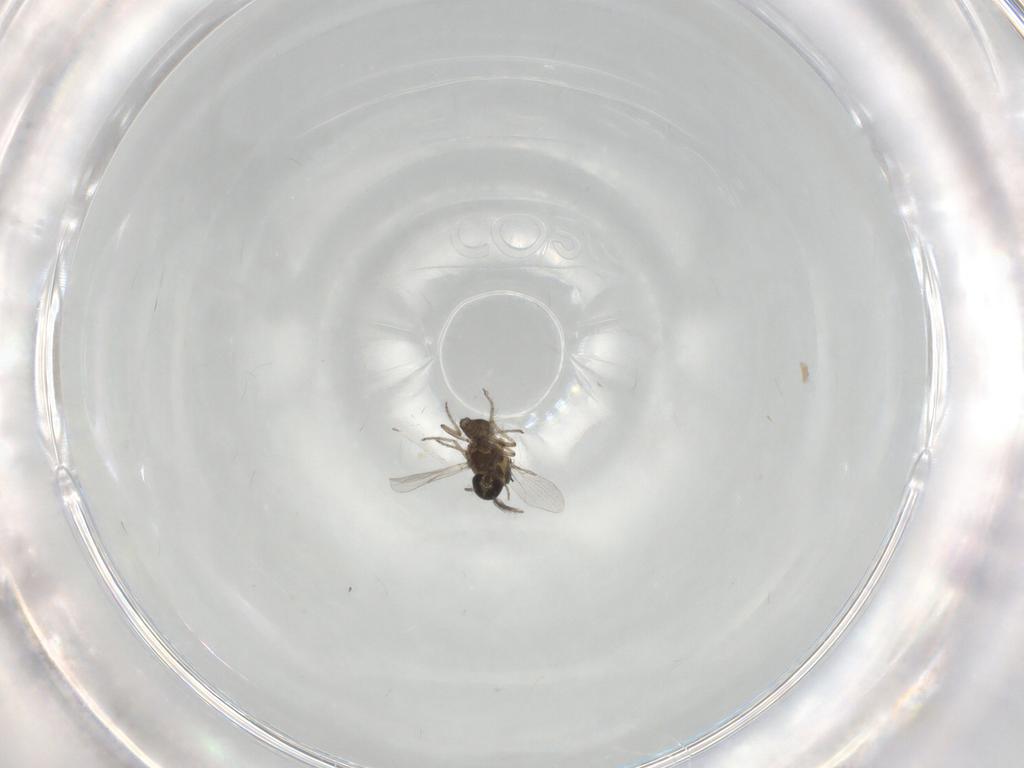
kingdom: Animalia
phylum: Arthropoda
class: Insecta
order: Diptera
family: Ceratopogonidae
